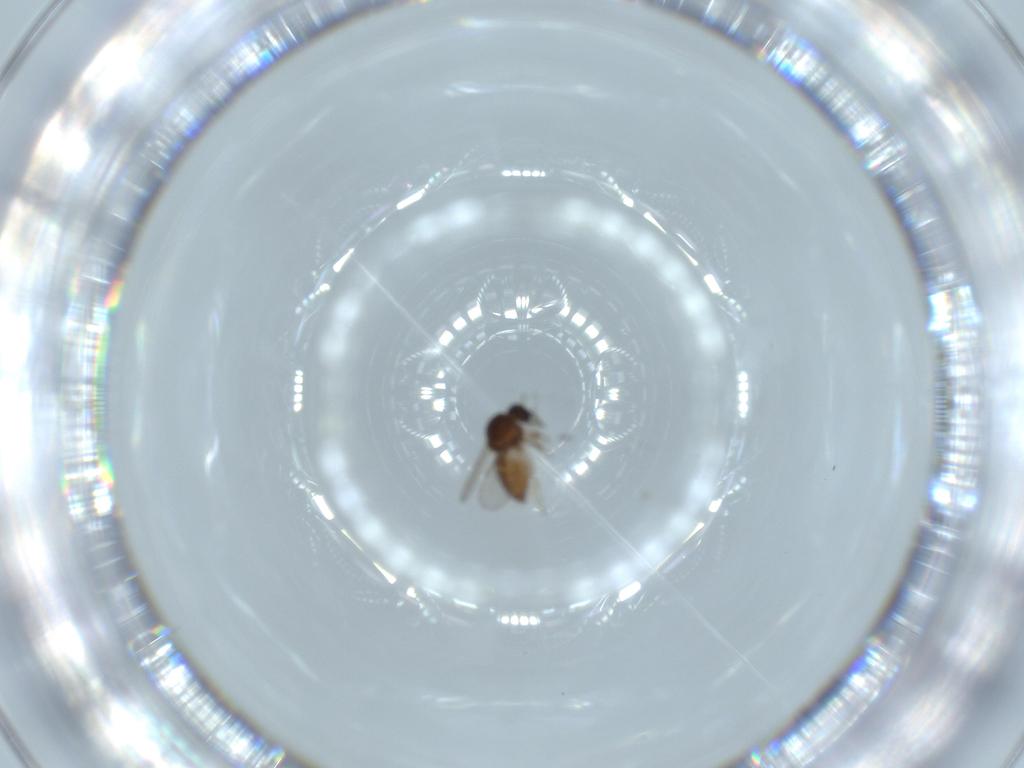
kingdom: Animalia
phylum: Arthropoda
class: Insecta
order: Diptera
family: Ceratopogonidae
